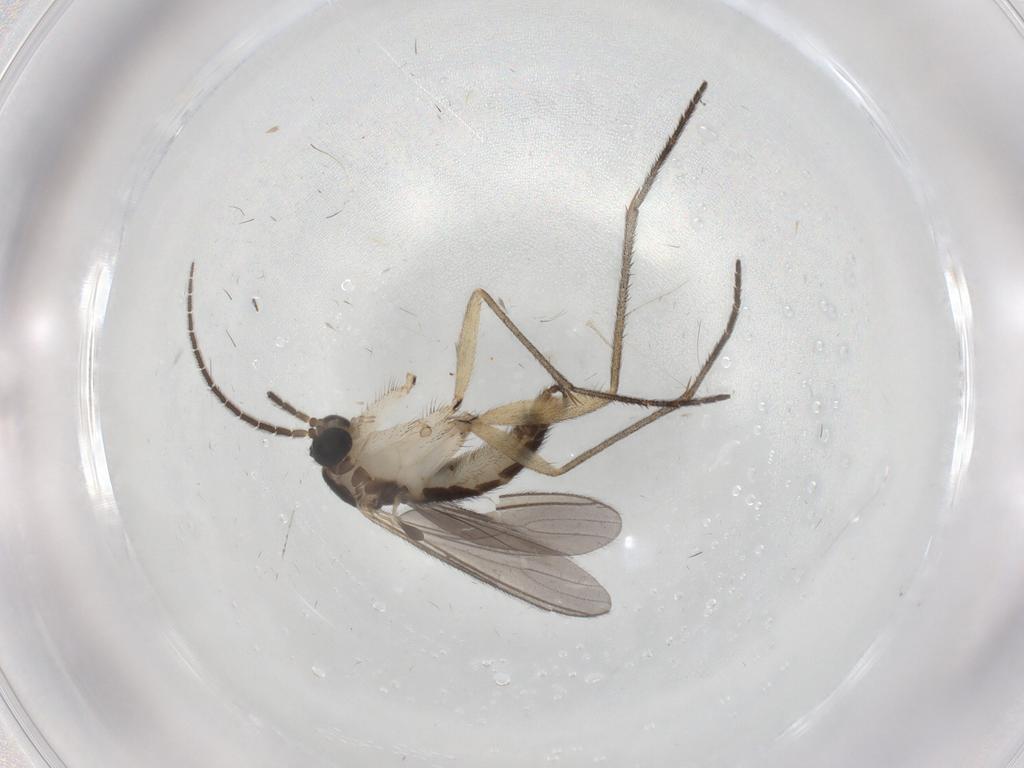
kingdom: Animalia
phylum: Arthropoda
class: Insecta
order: Diptera
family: Sciaridae
